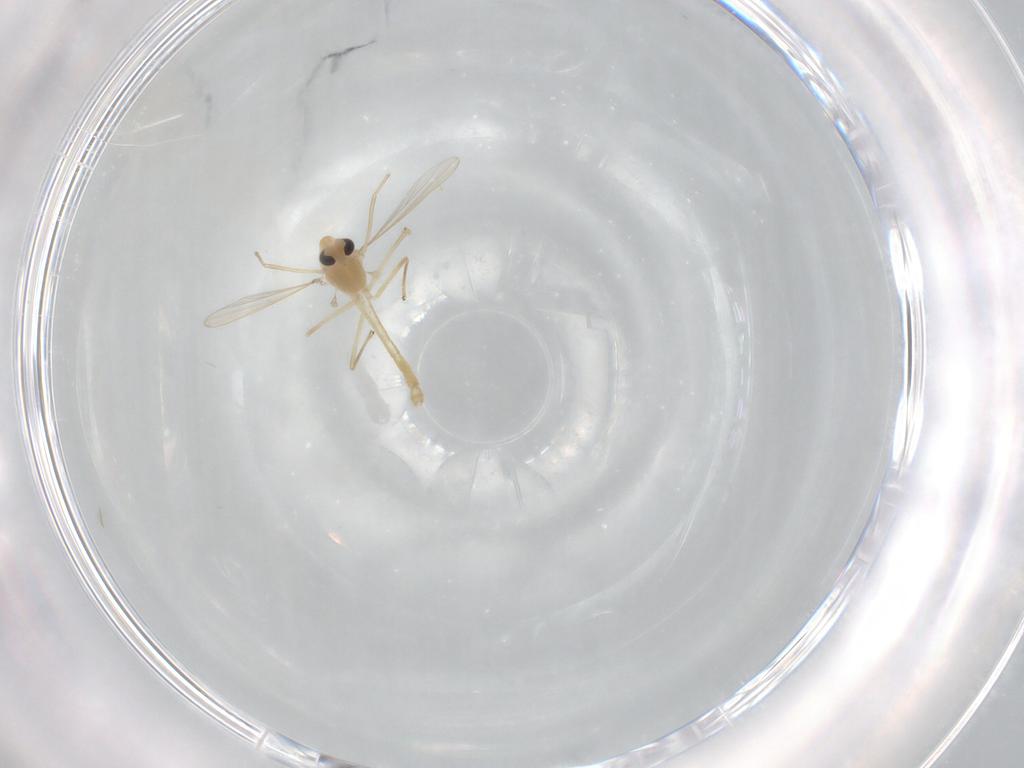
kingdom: Animalia
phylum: Arthropoda
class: Insecta
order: Diptera
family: Chironomidae
